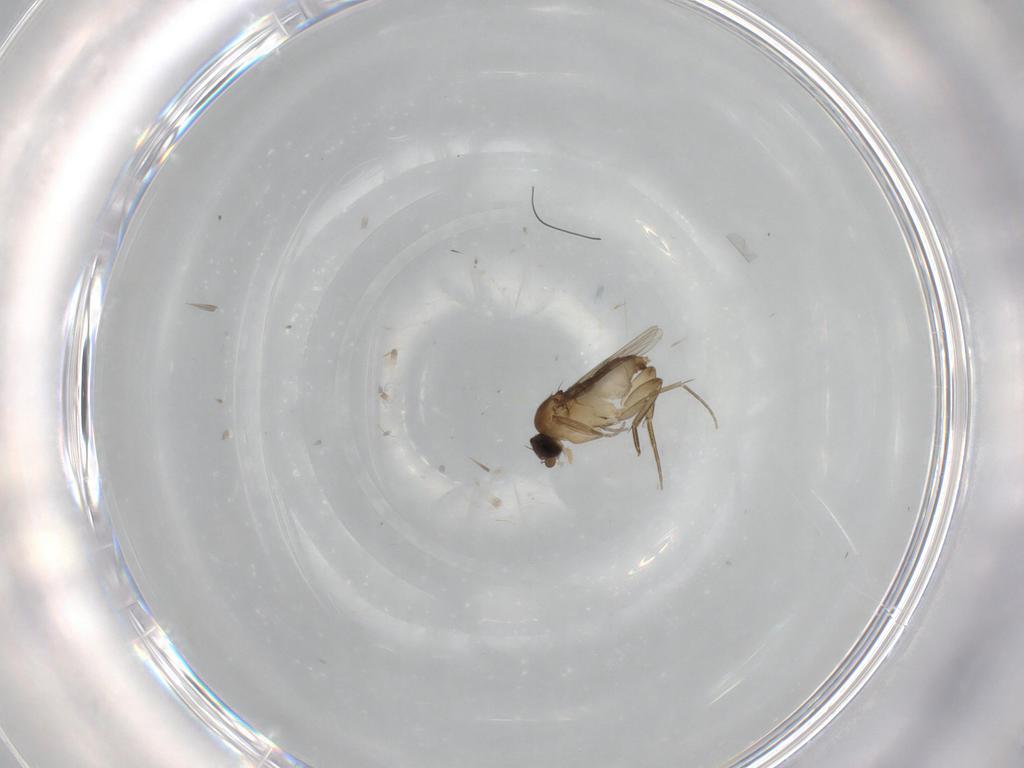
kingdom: Animalia
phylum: Arthropoda
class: Insecta
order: Diptera
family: Phoridae
